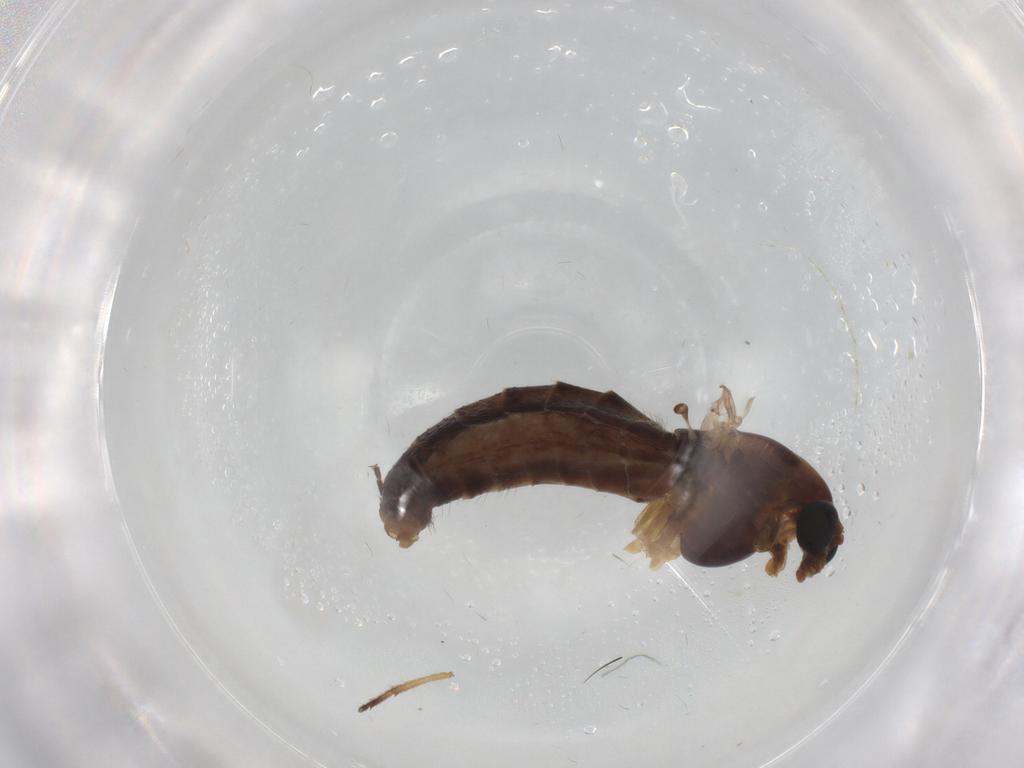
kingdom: Animalia
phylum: Arthropoda
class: Insecta
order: Diptera
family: Chironomidae
